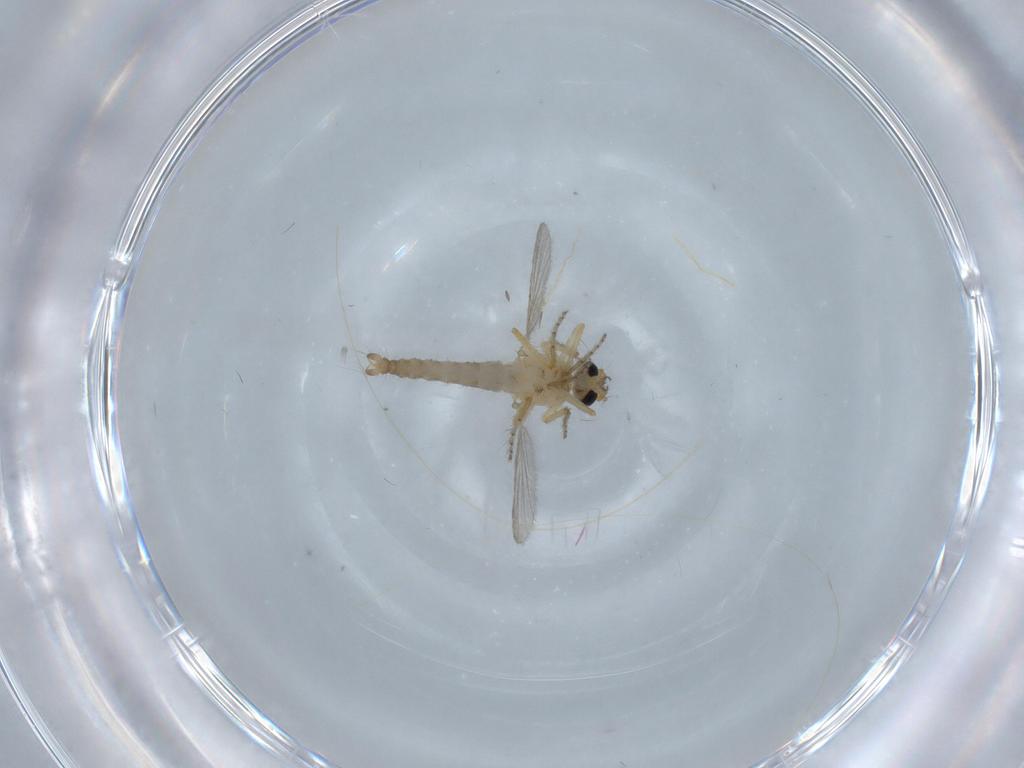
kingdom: Animalia
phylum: Arthropoda
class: Insecta
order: Diptera
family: Ceratopogonidae
